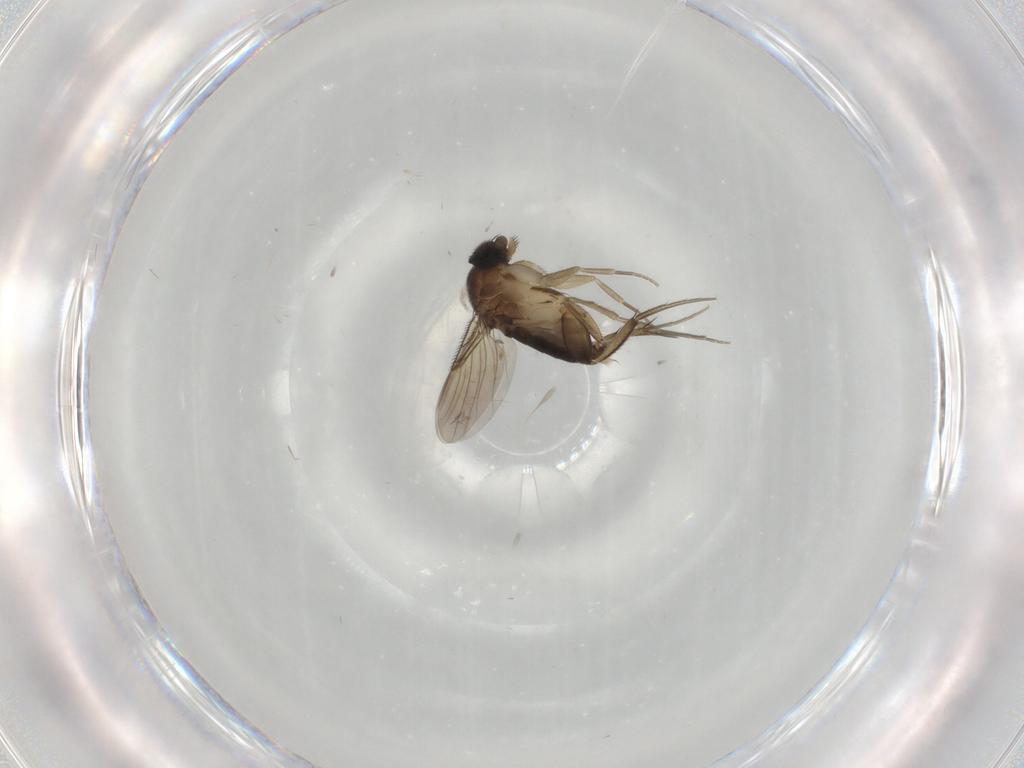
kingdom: Animalia
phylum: Arthropoda
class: Insecta
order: Diptera
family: Phoridae
